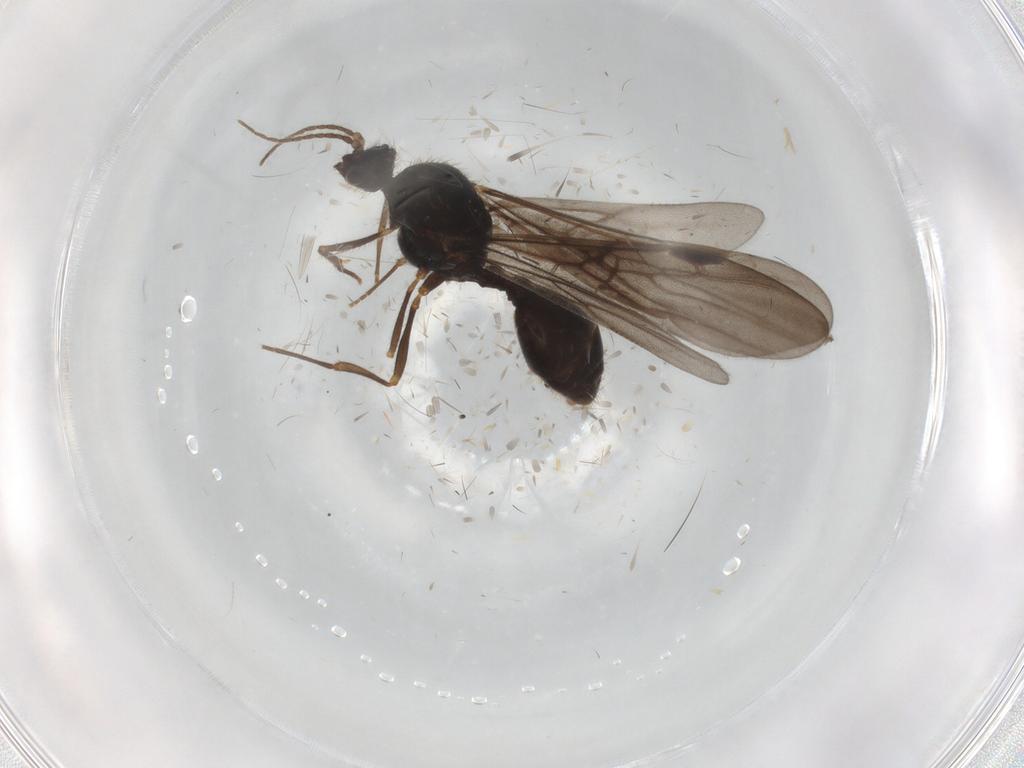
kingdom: Animalia
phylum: Arthropoda
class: Insecta
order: Hymenoptera
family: Formicidae
